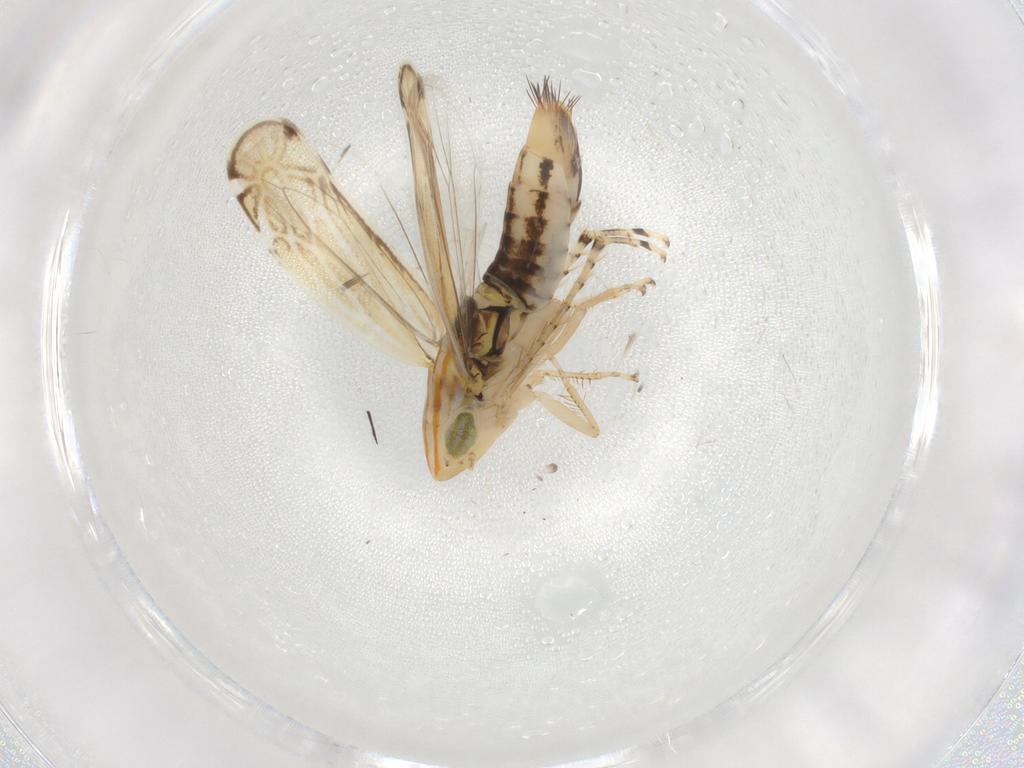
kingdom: Animalia
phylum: Arthropoda
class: Insecta
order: Hemiptera
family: Cicadellidae
